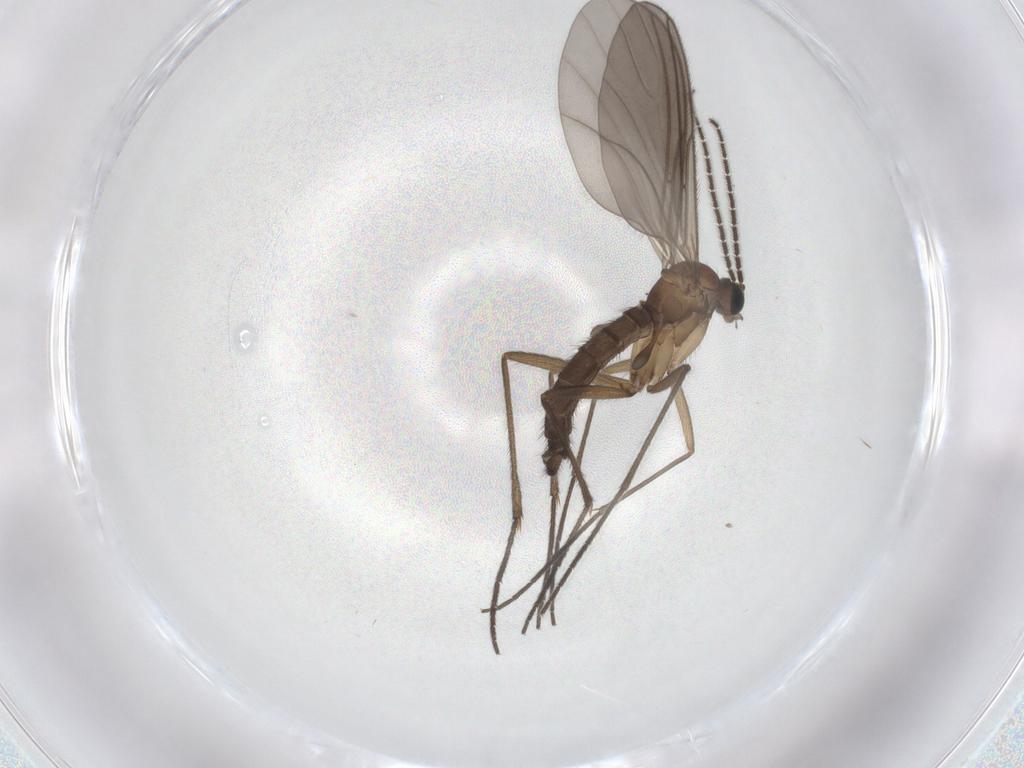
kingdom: Animalia
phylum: Arthropoda
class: Insecta
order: Diptera
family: Sciaridae
